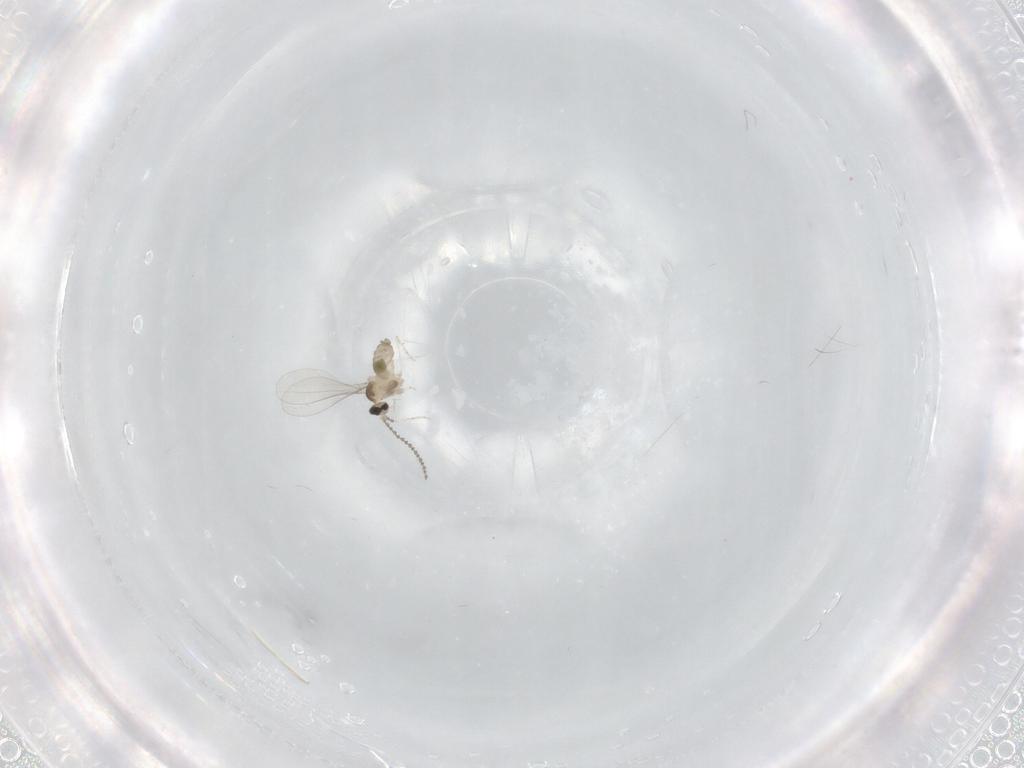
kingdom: Animalia
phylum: Arthropoda
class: Insecta
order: Diptera
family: Cecidomyiidae
